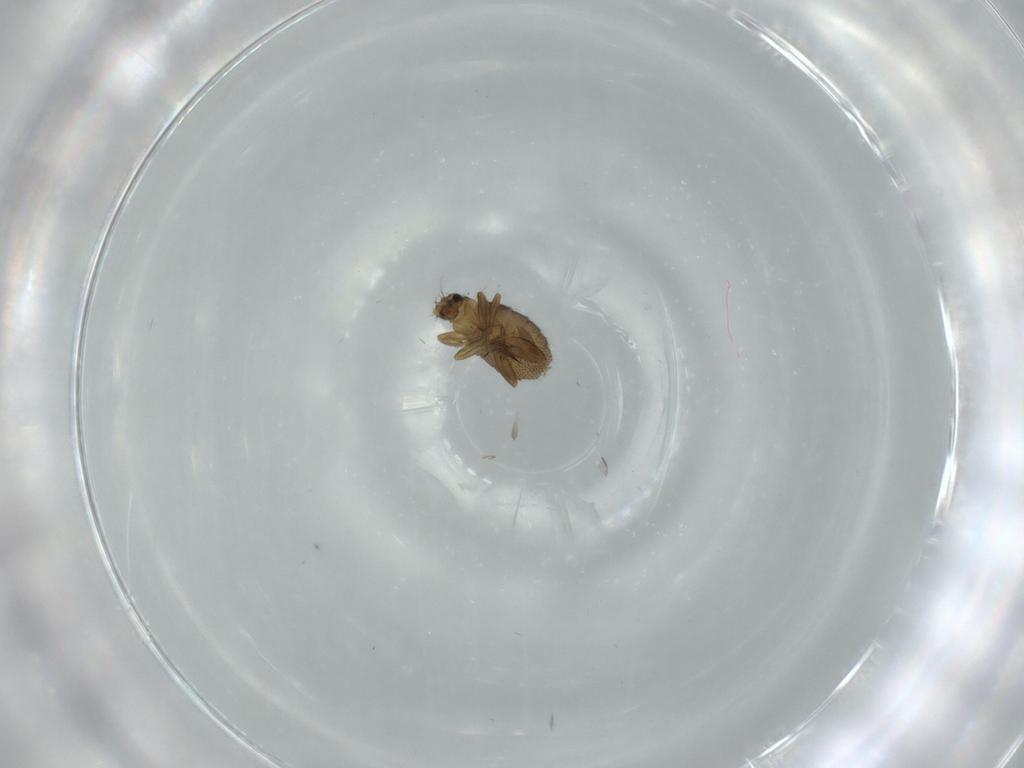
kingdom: Animalia
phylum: Arthropoda
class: Insecta
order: Diptera
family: Phoridae
